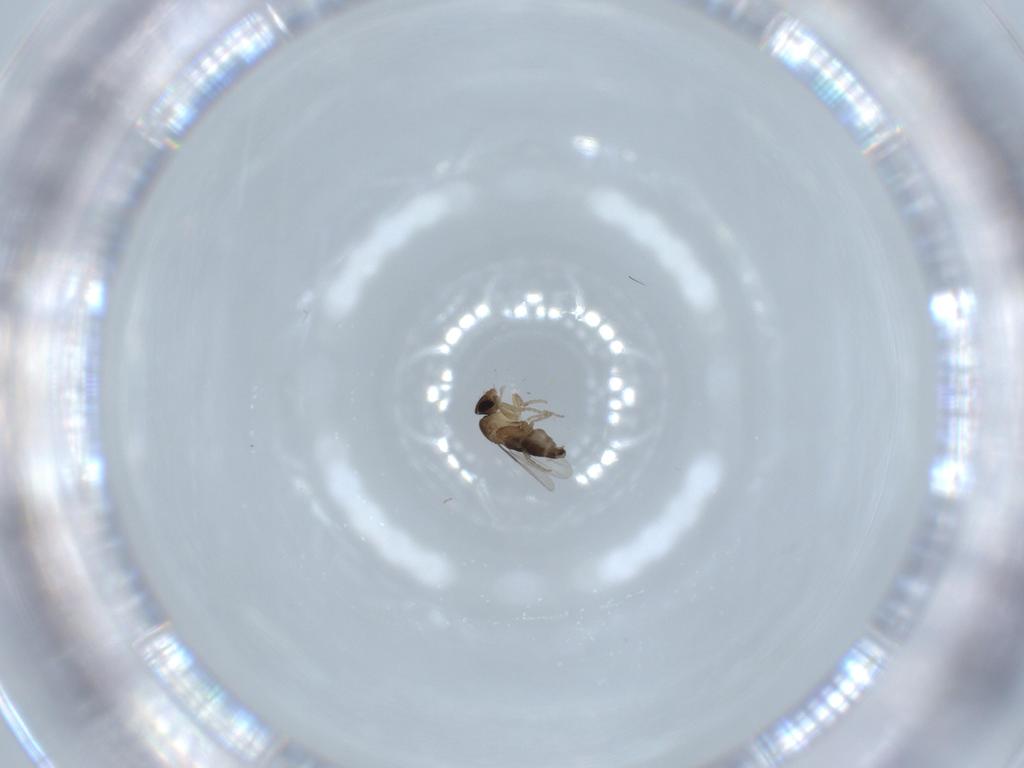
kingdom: Animalia
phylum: Arthropoda
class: Insecta
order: Diptera
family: Phoridae
